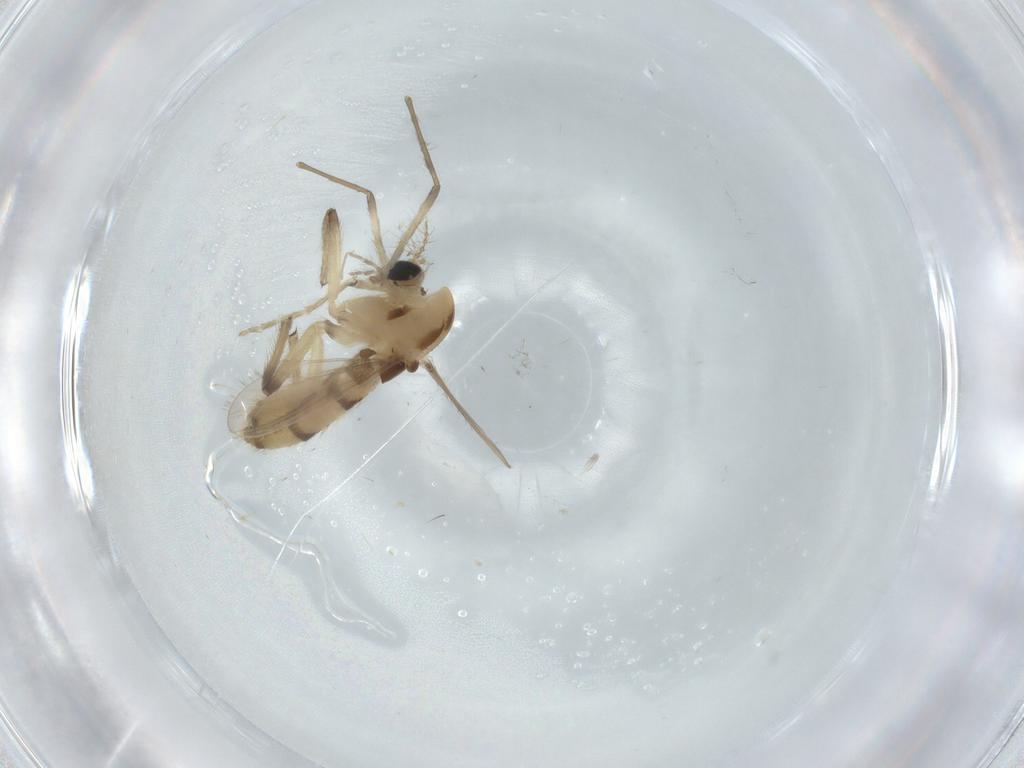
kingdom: Animalia
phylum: Arthropoda
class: Insecta
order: Diptera
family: Chironomidae
